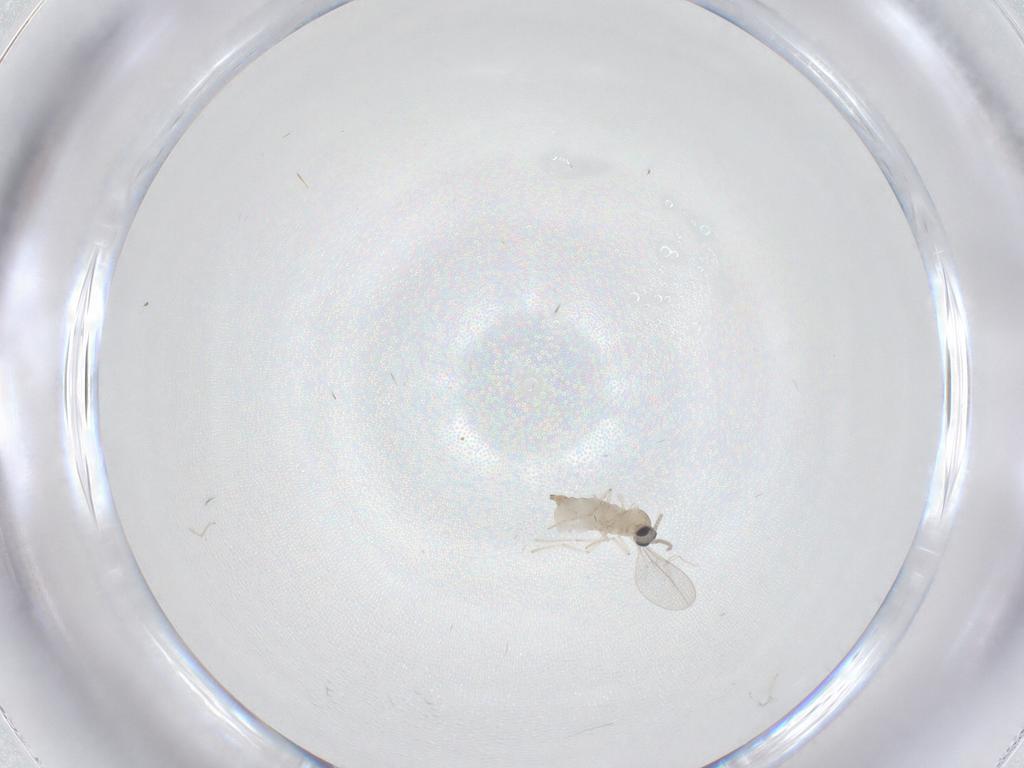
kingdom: Animalia
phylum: Arthropoda
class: Insecta
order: Diptera
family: Cecidomyiidae
